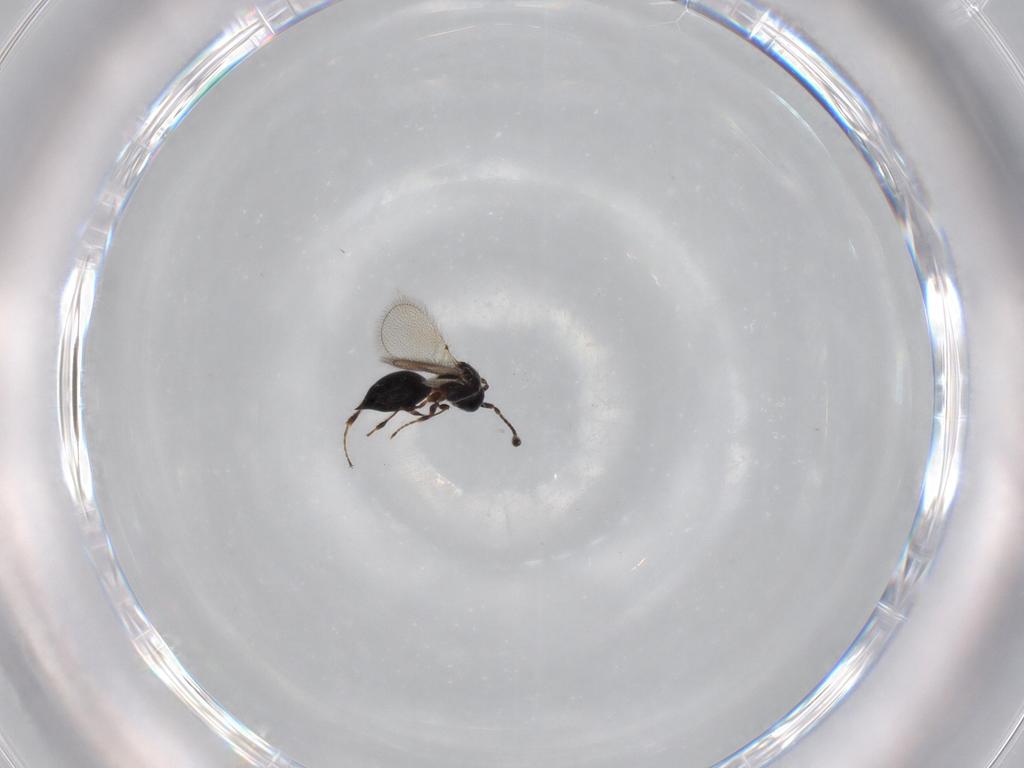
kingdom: Animalia
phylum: Arthropoda
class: Insecta
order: Hymenoptera
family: Diapriidae
